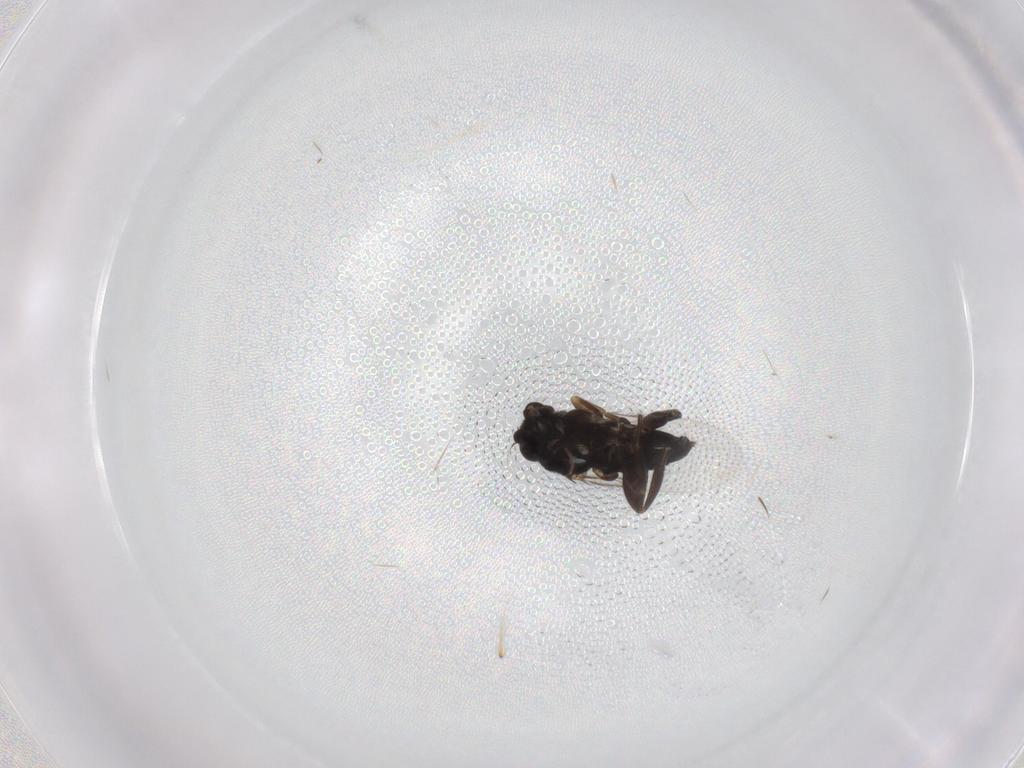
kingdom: Animalia
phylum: Arthropoda
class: Insecta
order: Diptera
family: Phoridae
